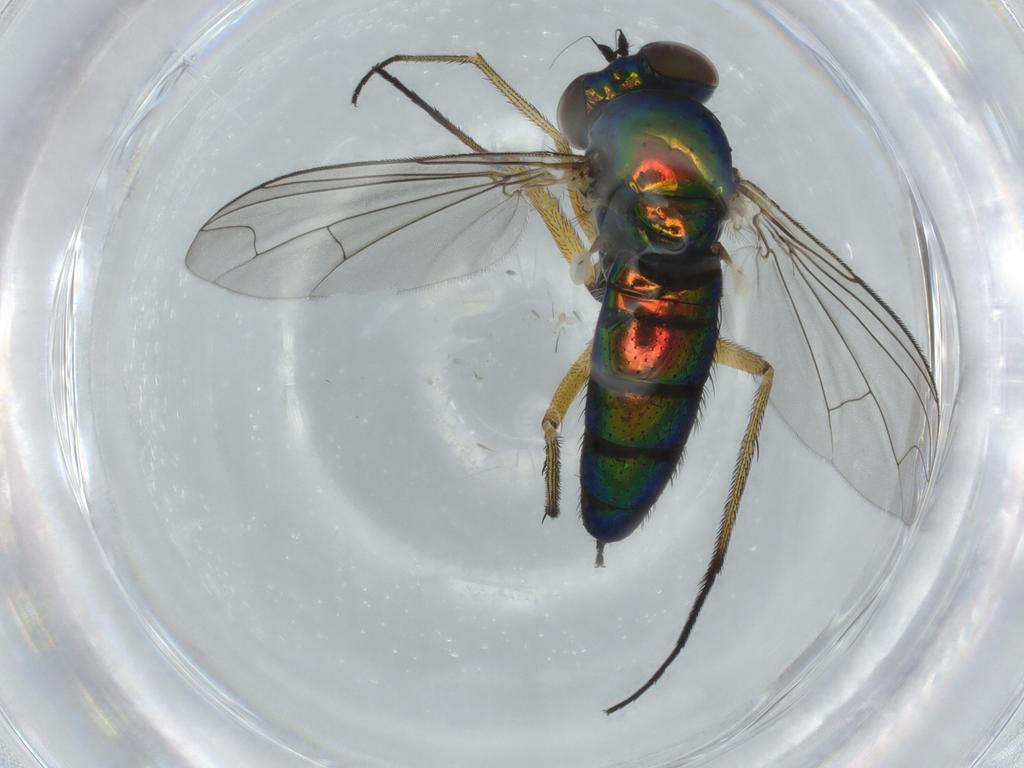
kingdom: Animalia
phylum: Arthropoda
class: Insecta
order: Diptera
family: Dolichopodidae
